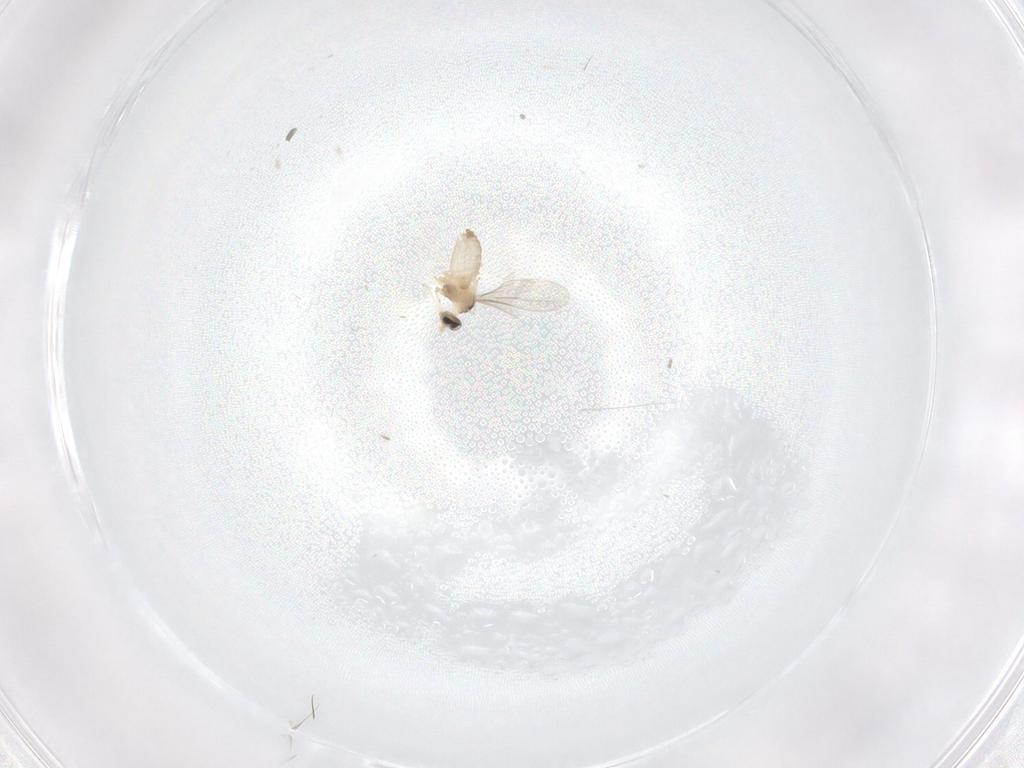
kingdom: Animalia
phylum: Arthropoda
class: Insecta
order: Diptera
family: Cecidomyiidae
